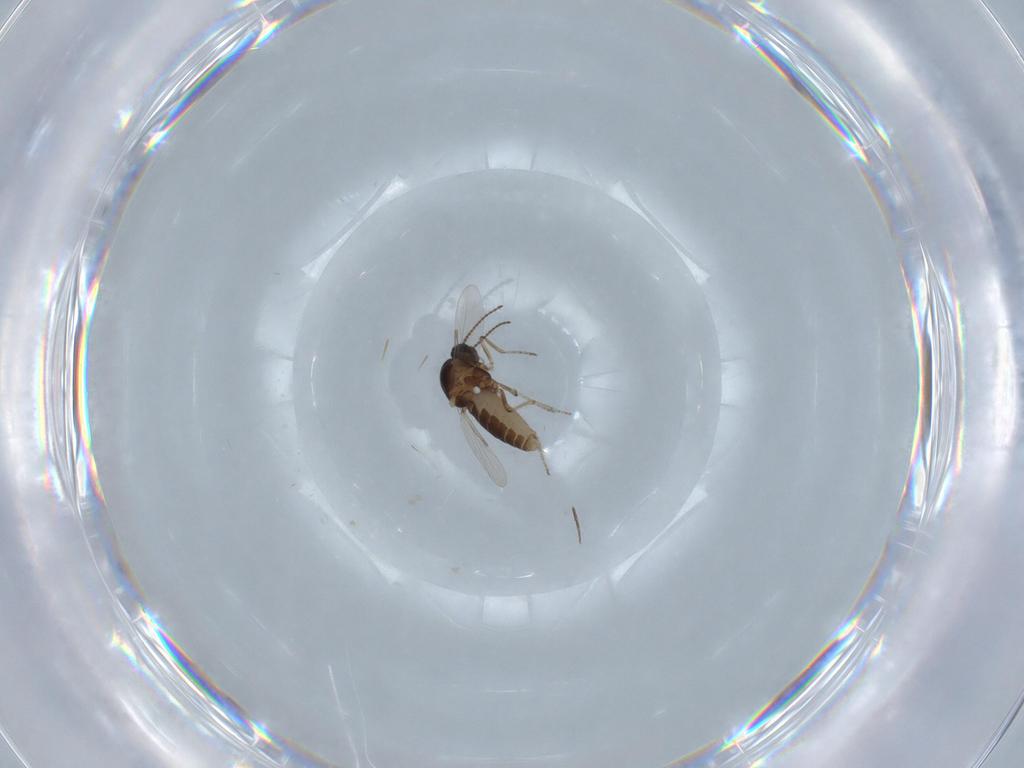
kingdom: Animalia
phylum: Arthropoda
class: Insecta
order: Diptera
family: Ceratopogonidae
